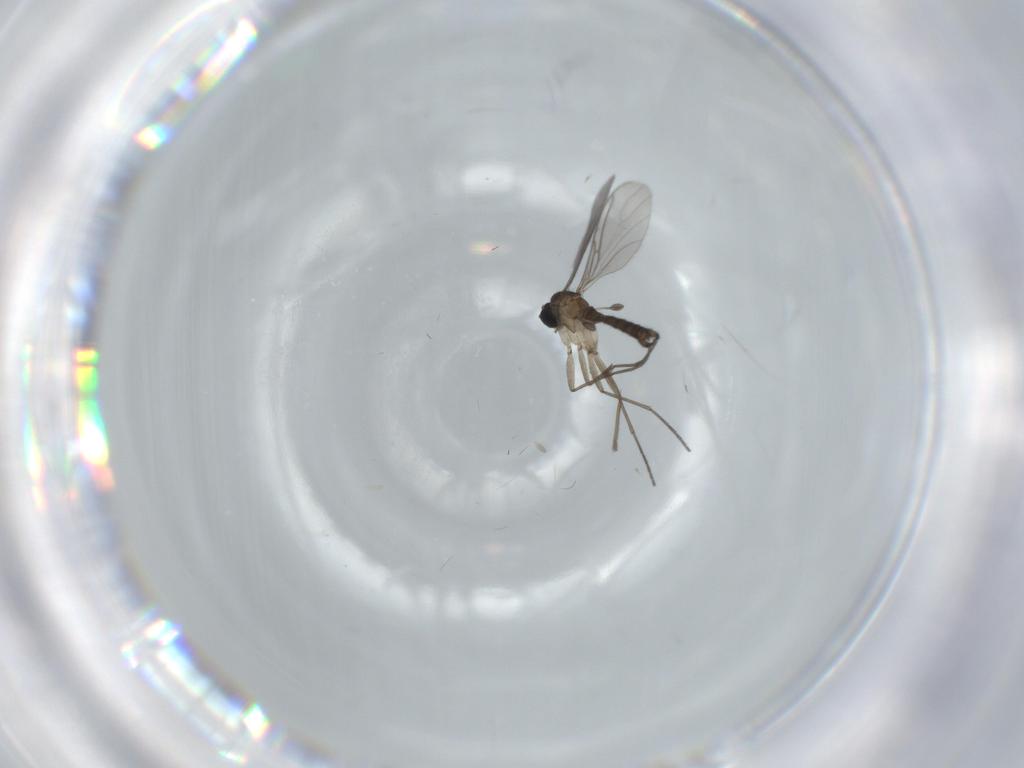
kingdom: Animalia
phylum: Arthropoda
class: Insecta
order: Diptera
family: Sciaridae
